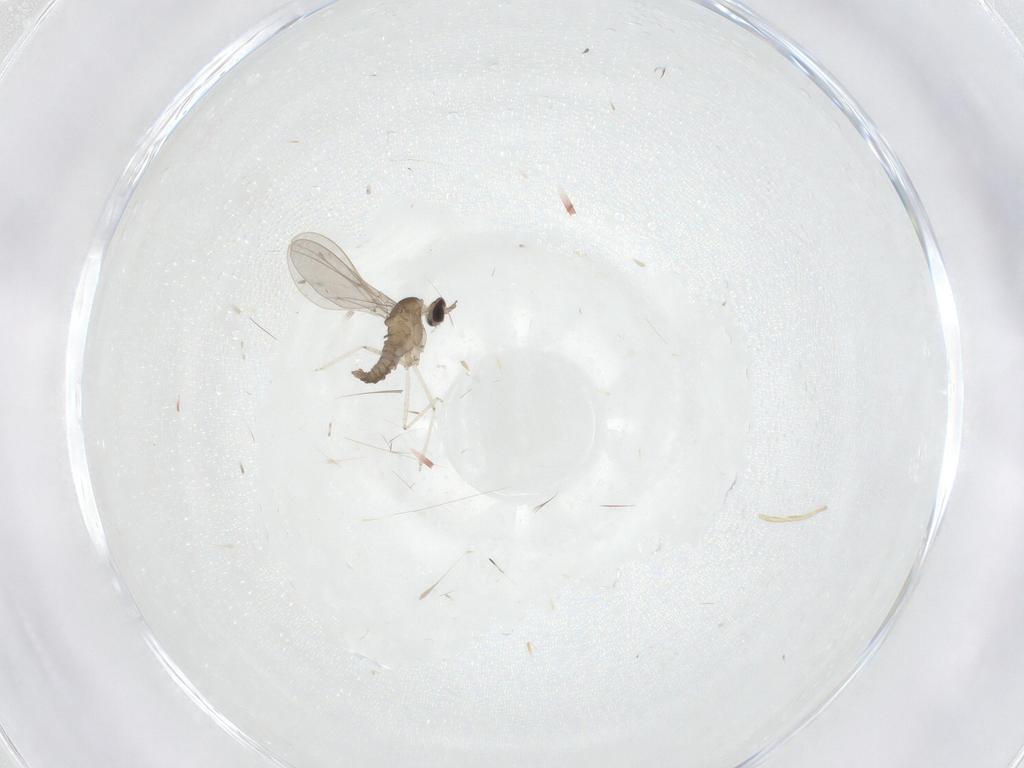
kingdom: Animalia
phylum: Arthropoda
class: Insecta
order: Diptera
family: Cecidomyiidae
